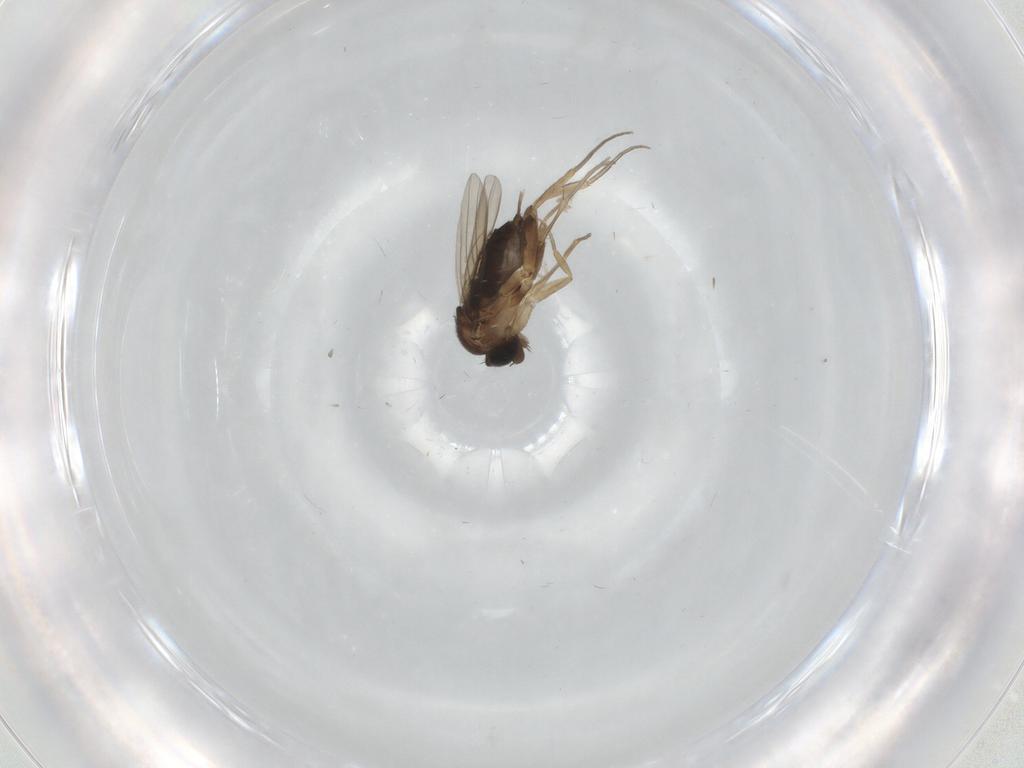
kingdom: Animalia
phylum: Arthropoda
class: Insecta
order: Diptera
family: Cecidomyiidae
